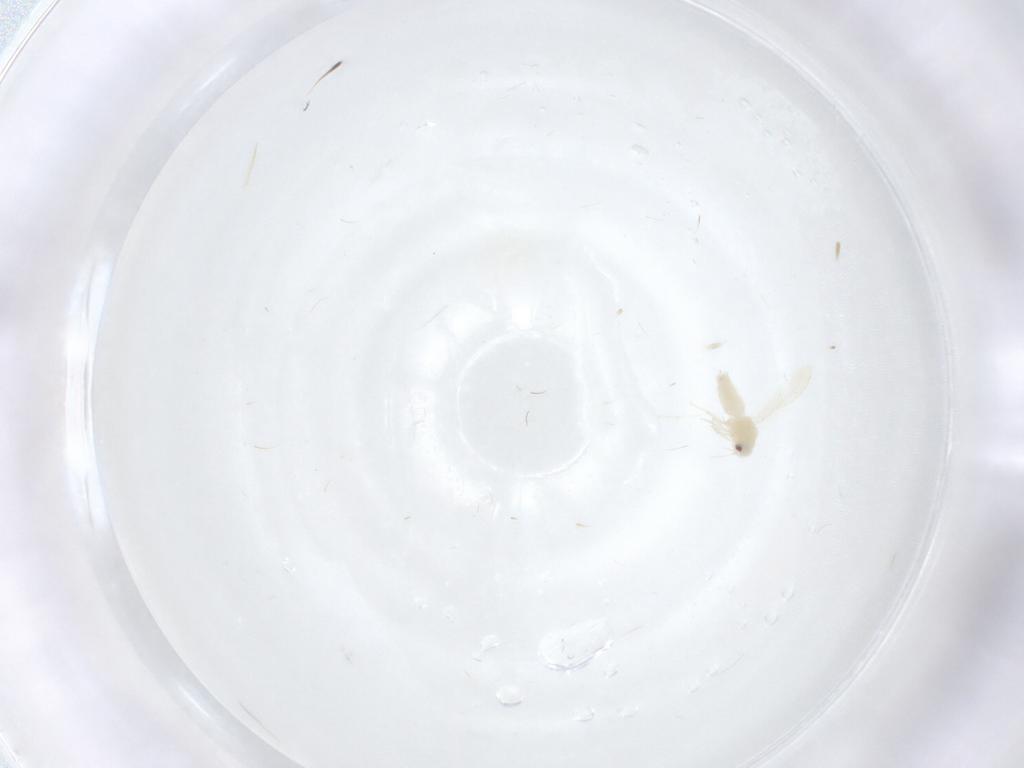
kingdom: Animalia
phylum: Arthropoda
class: Insecta
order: Hemiptera
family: Aleyrodidae
